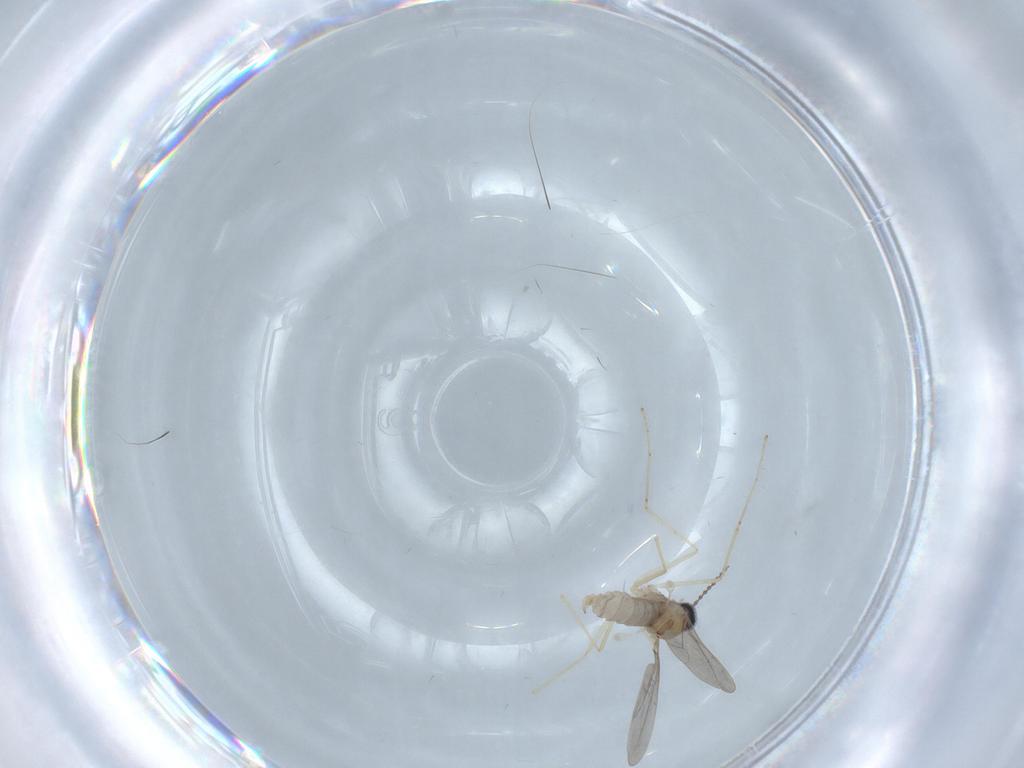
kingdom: Animalia
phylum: Arthropoda
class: Insecta
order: Diptera
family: Cecidomyiidae
